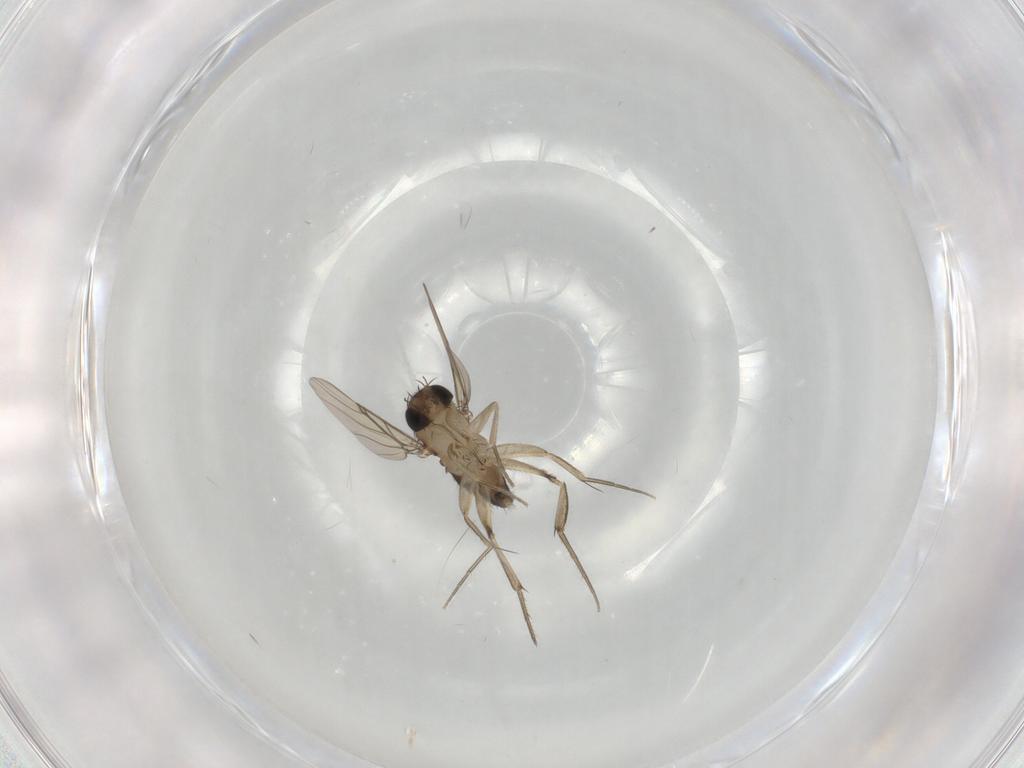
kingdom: Animalia
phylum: Arthropoda
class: Insecta
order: Diptera
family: Phoridae
